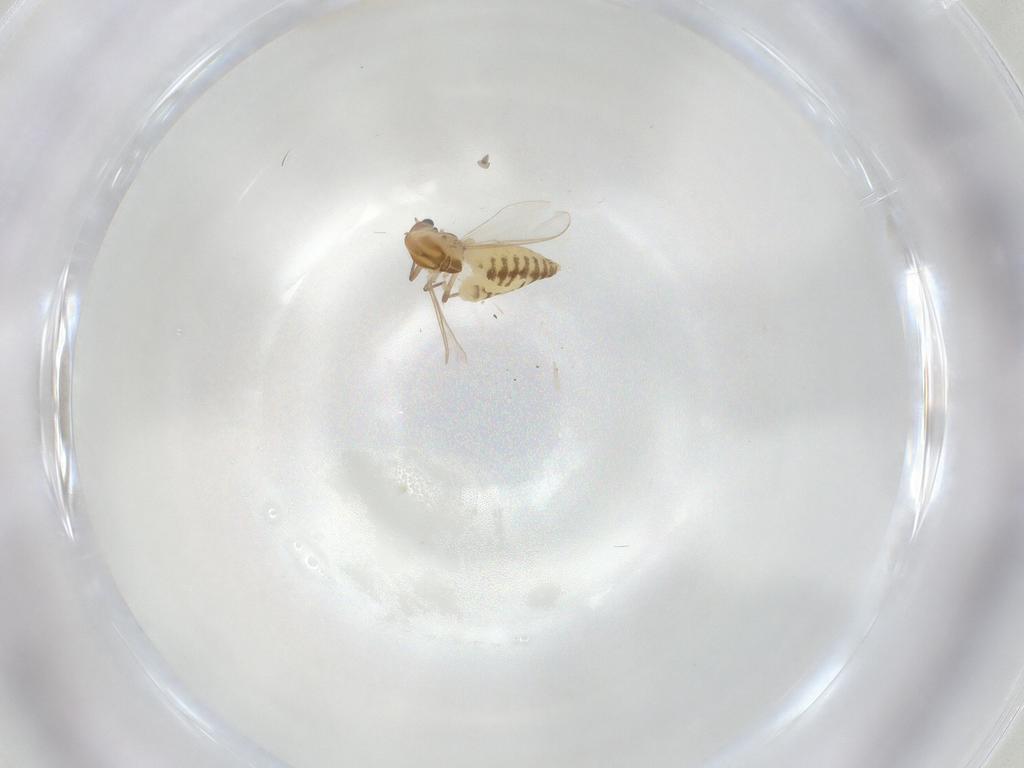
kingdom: Animalia
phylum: Arthropoda
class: Insecta
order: Diptera
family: Chironomidae
